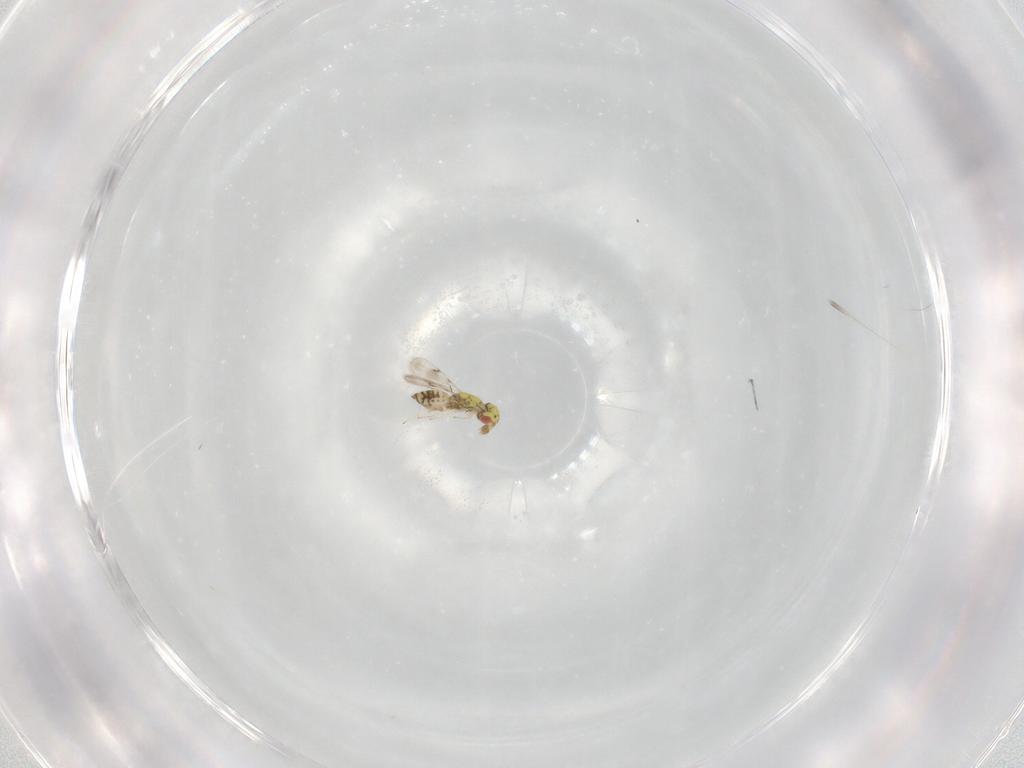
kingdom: Animalia
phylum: Arthropoda
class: Insecta
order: Hymenoptera
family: Eulophidae
